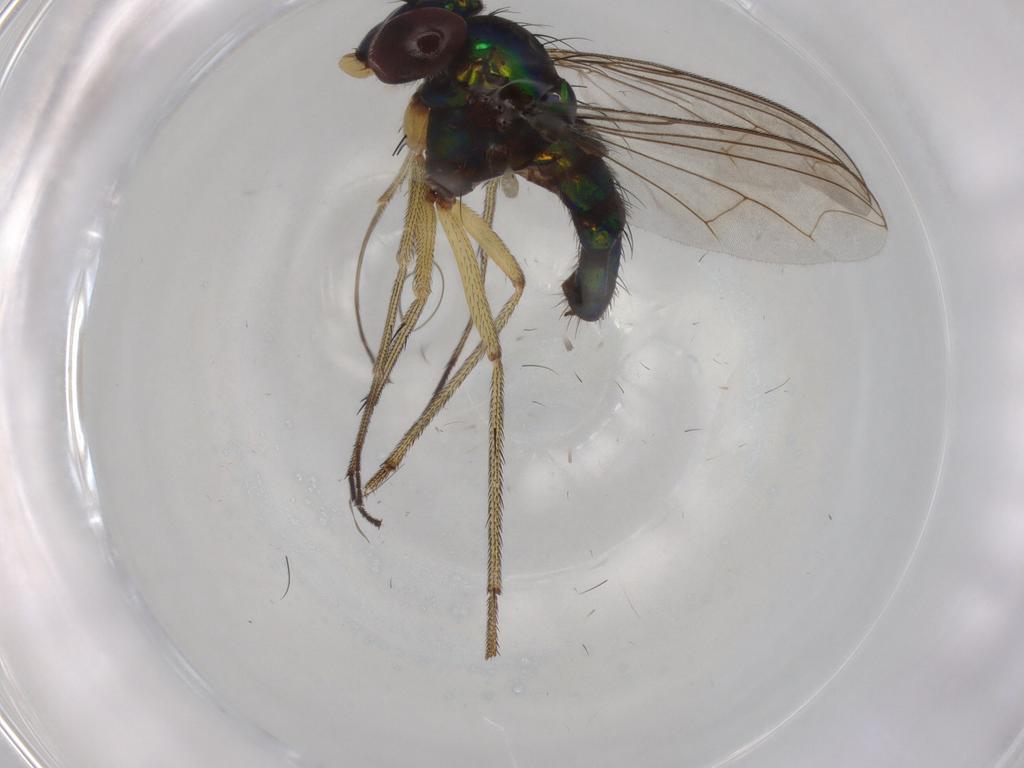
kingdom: Animalia
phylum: Arthropoda
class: Insecta
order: Diptera
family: Dolichopodidae
